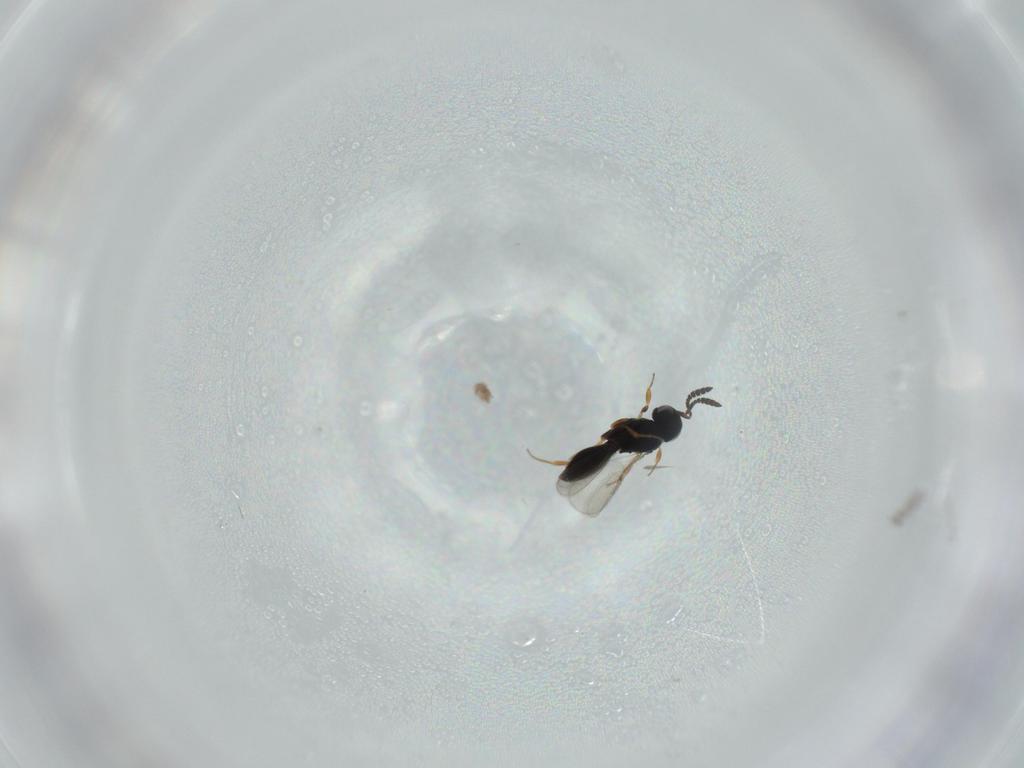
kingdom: Animalia
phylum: Arthropoda
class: Insecta
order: Hymenoptera
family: Scelionidae
